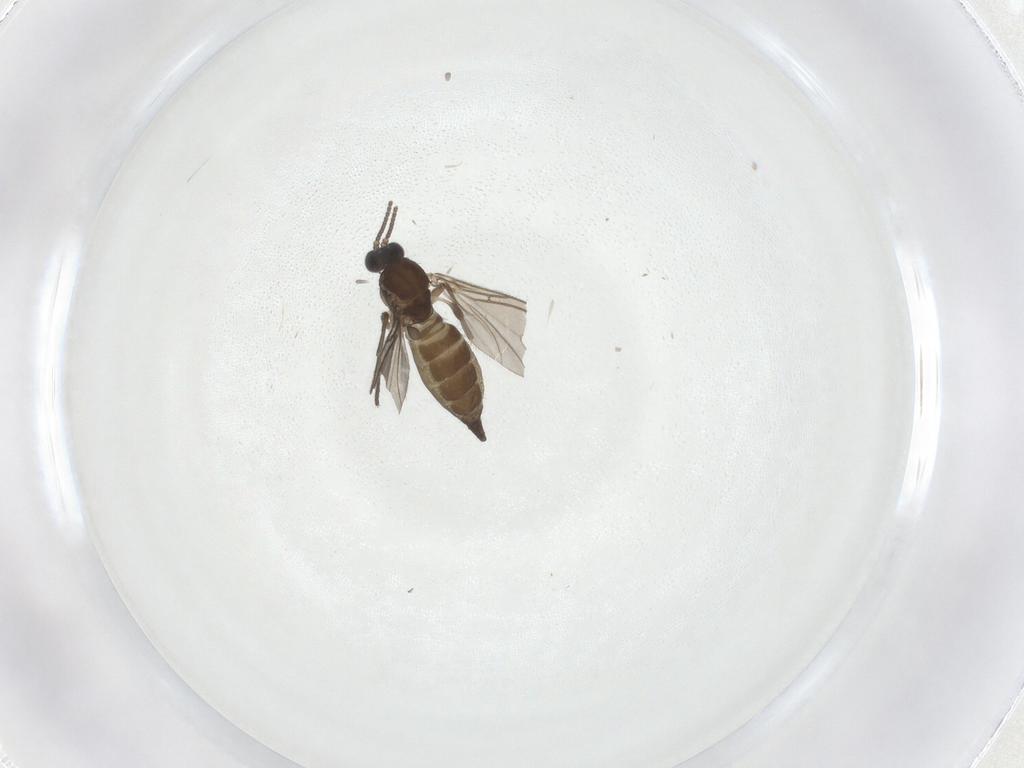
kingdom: Animalia
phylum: Arthropoda
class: Insecta
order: Diptera
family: Sciaridae
